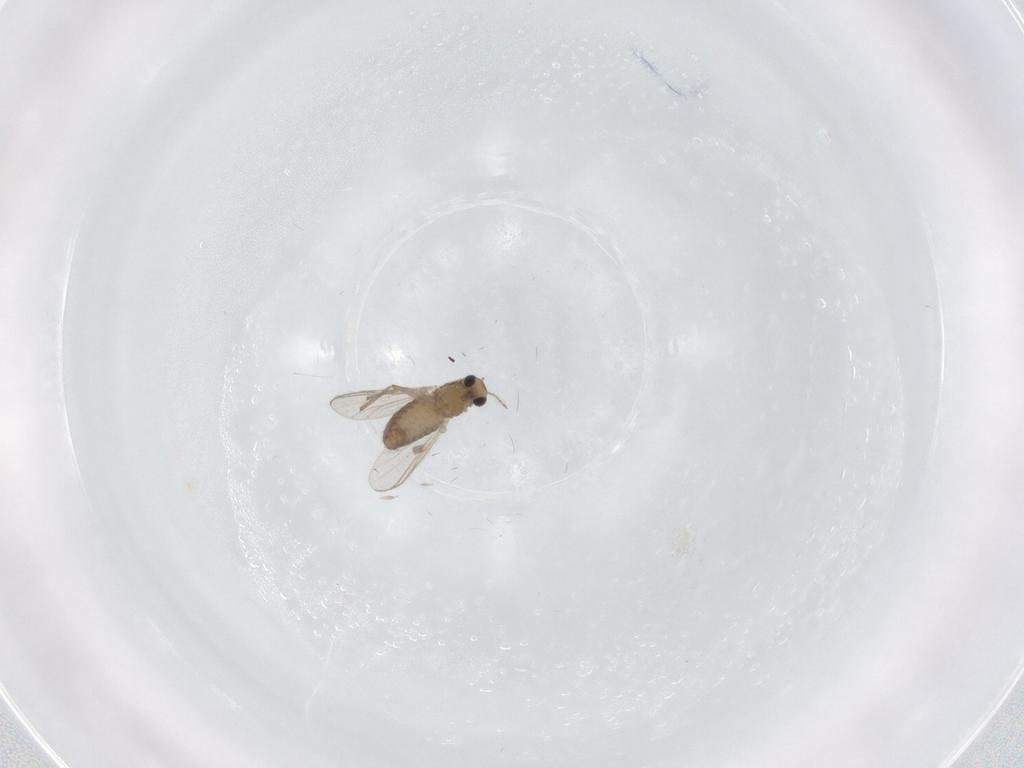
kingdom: Animalia
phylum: Arthropoda
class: Insecta
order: Diptera
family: Chironomidae
